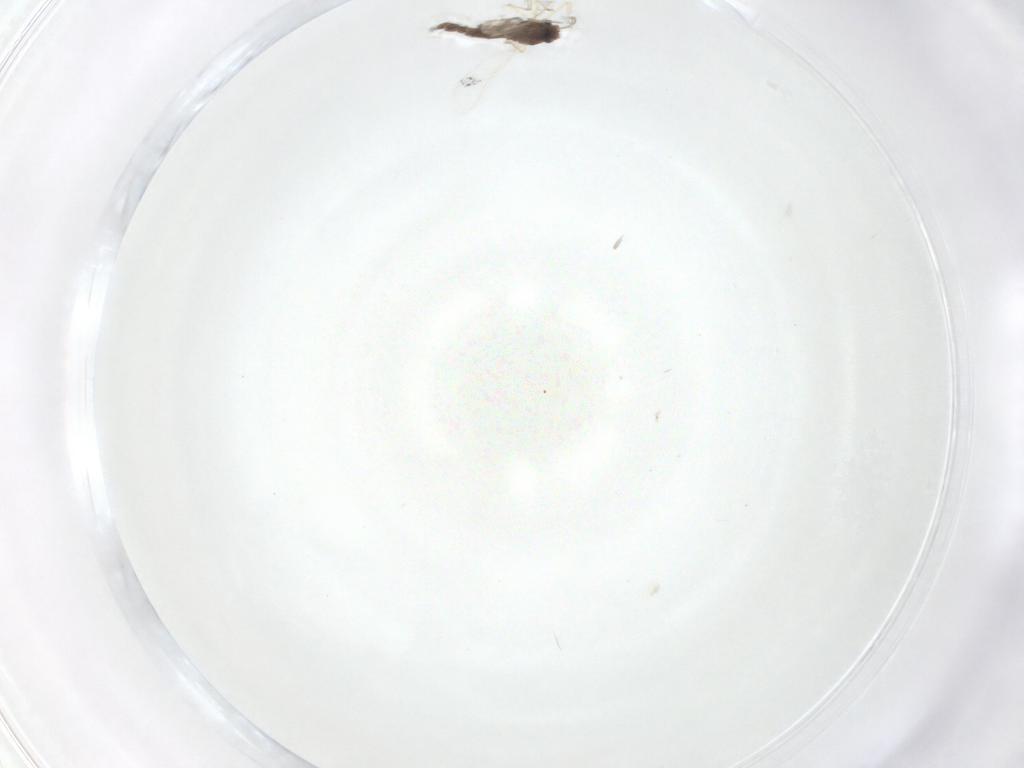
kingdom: Animalia
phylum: Arthropoda
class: Insecta
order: Diptera
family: Chironomidae
